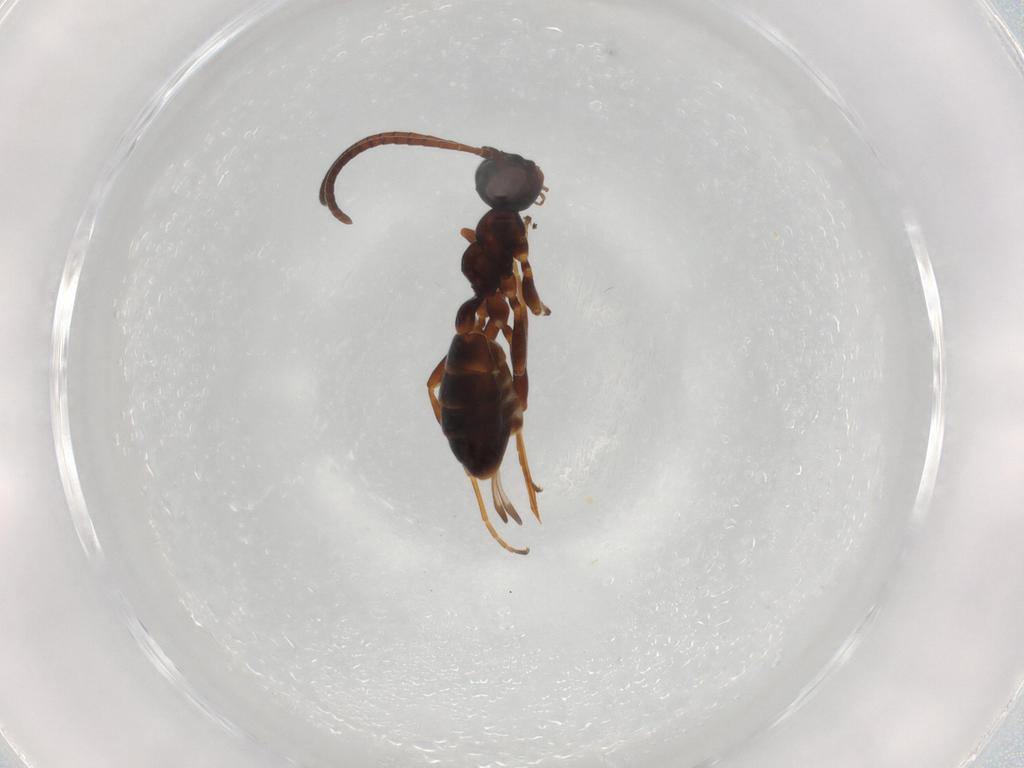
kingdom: Animalia
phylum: Arthropoda
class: Insecta
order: Hymenoptera
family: Ichneumonidae
